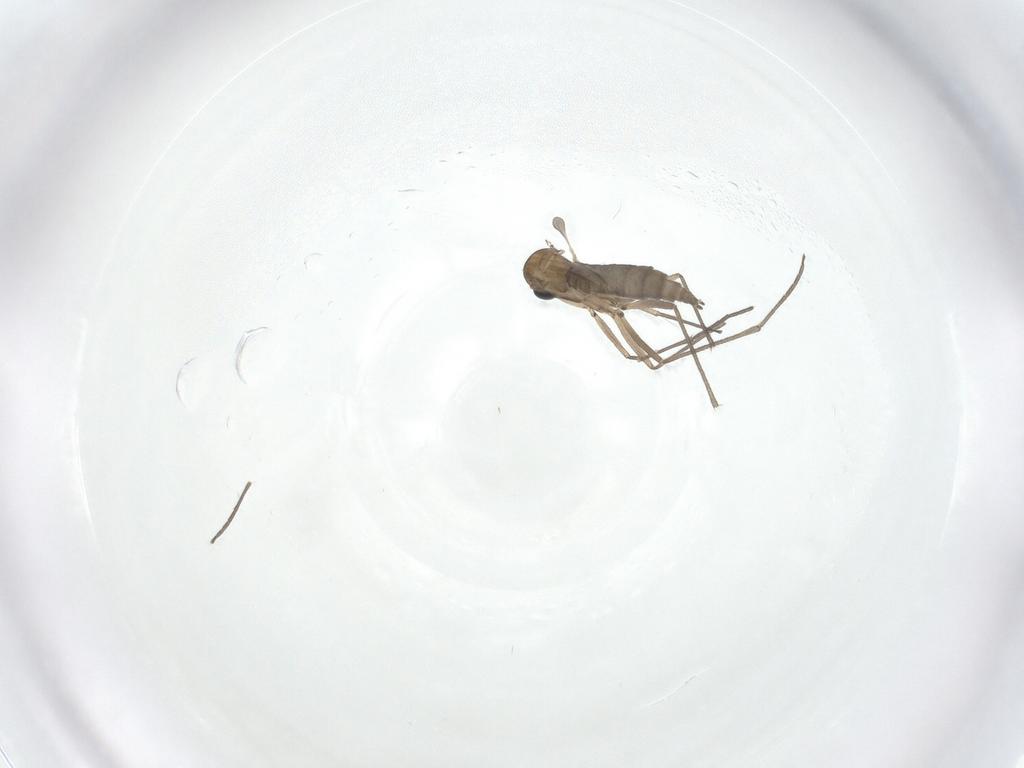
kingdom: Animalia
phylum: Arthropoda
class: Insecta
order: Diptera
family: Sciaridae
